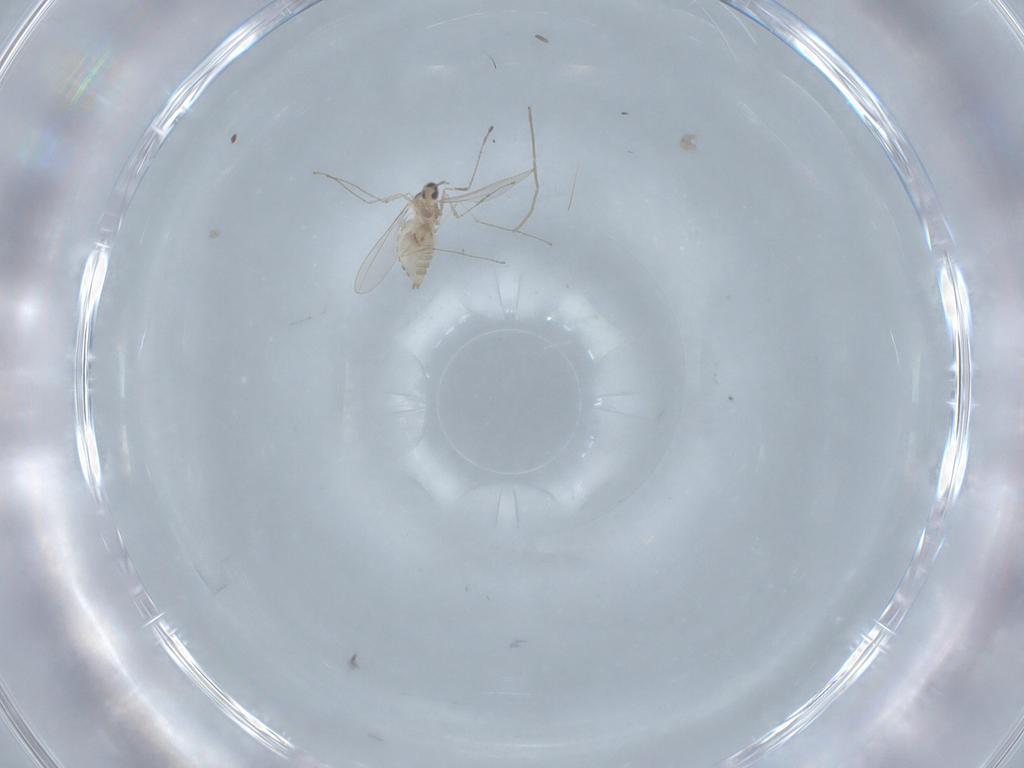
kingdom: Animalia
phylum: Arthropoda
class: Insecta
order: Diptera
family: Cecidomyiidae
